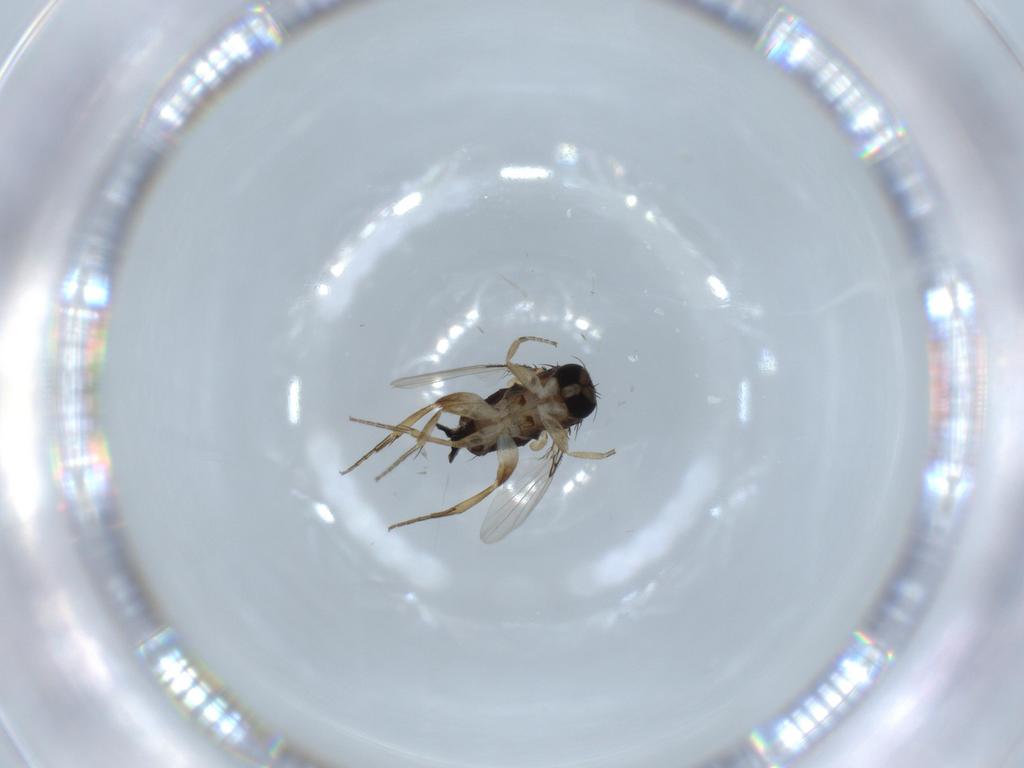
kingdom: Animalia
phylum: Arthropoda
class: Insecta
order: Diptera
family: Phoridae
